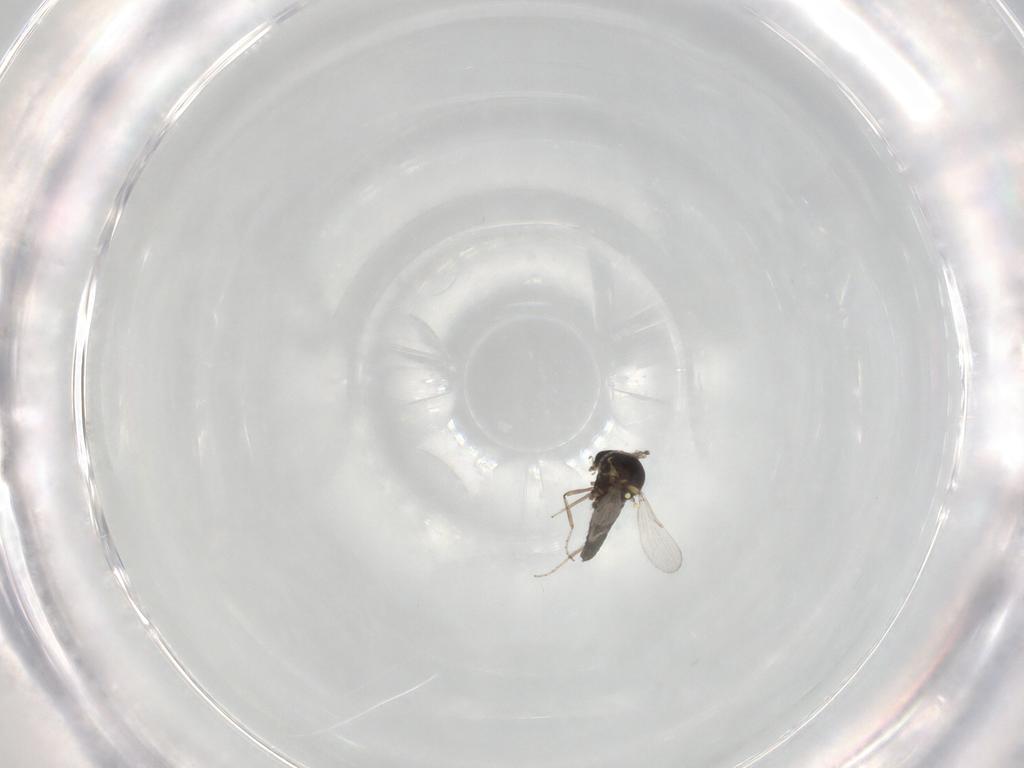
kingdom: Animalia
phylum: Arthropoda
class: Insecta
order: Diptera
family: Ceratopogonidae
